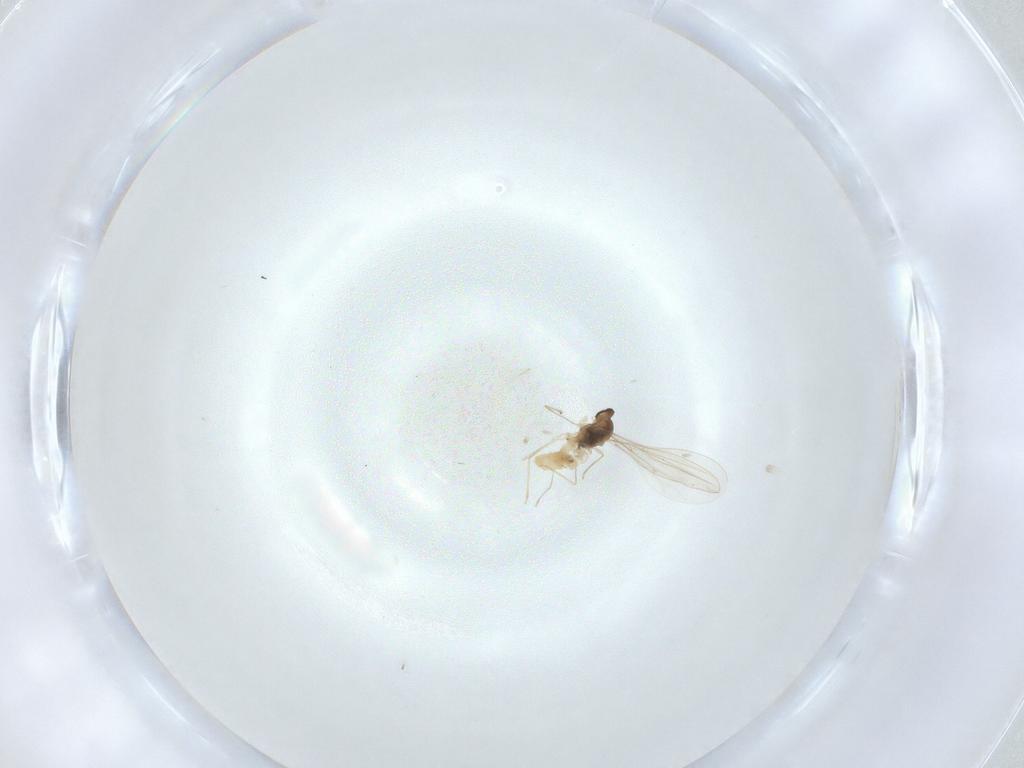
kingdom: Animalia
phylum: Arthropoda
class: Insecta
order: Diptera
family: Cecidomyiidae
